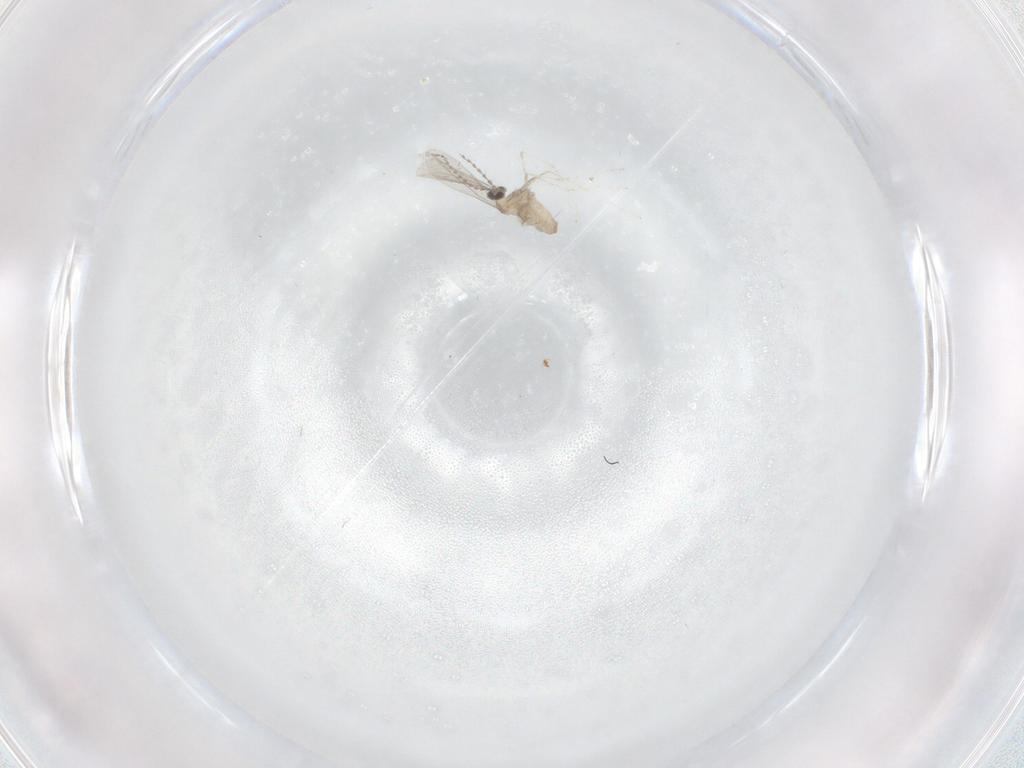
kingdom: Animalia
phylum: Arthropoda
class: Insecta
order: Diptera
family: Cecidomyiidae
